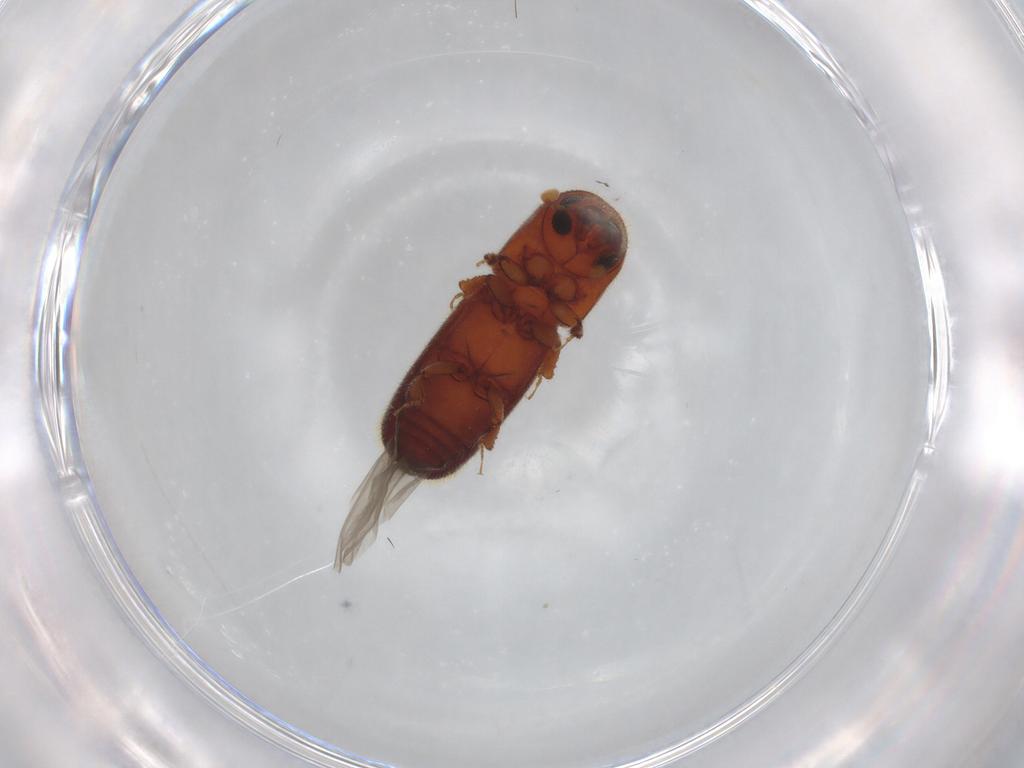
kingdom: Animalia
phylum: Arthropoda
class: Insecta
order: Coleoptera
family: Curculionidae
